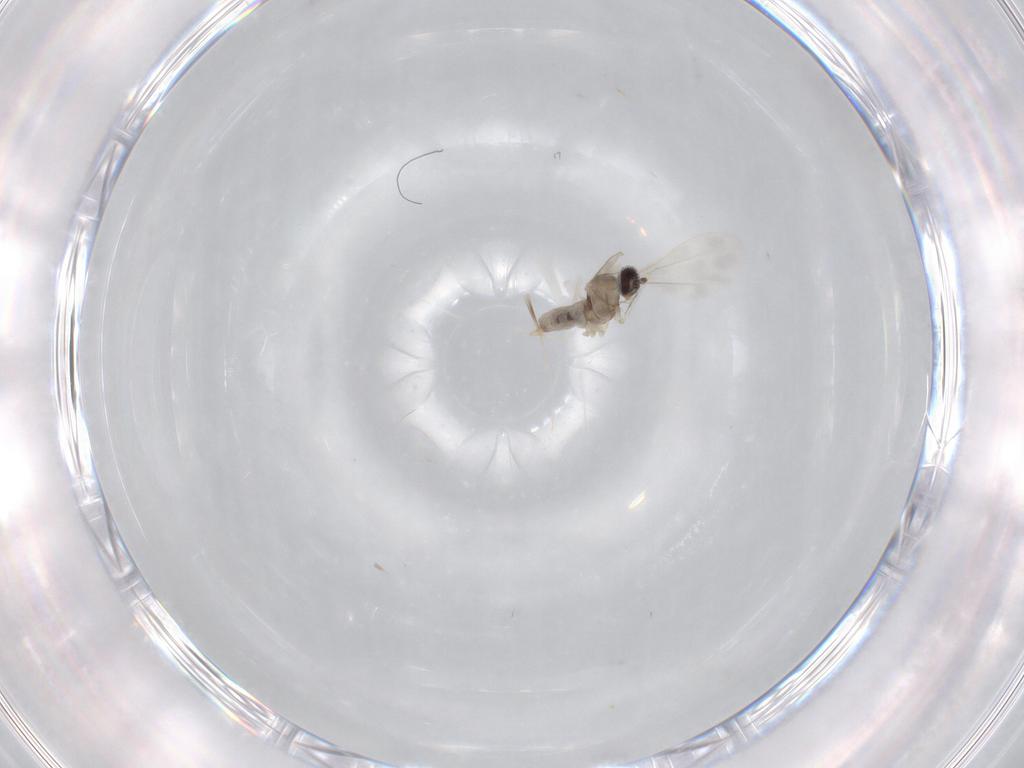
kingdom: Animalia
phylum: Arthropoda
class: Insecta
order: Diptera
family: Cecidomyiidae
